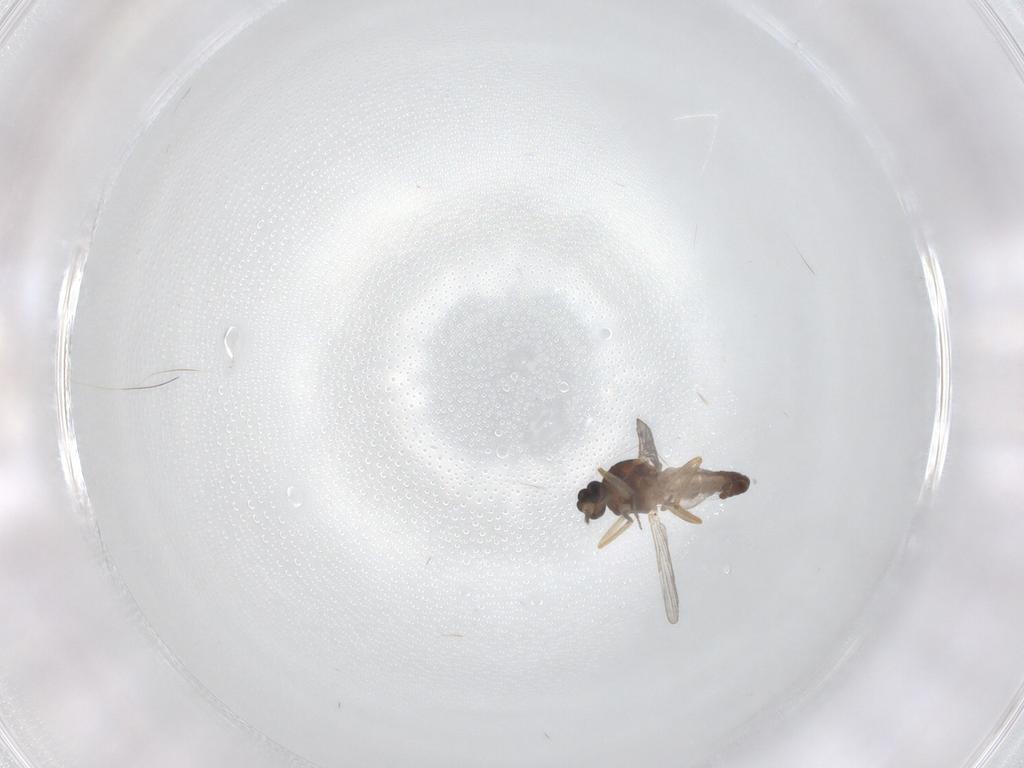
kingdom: Animalia
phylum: Arthropoda
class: Insecta
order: Diptera
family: Ceratopogonidae
